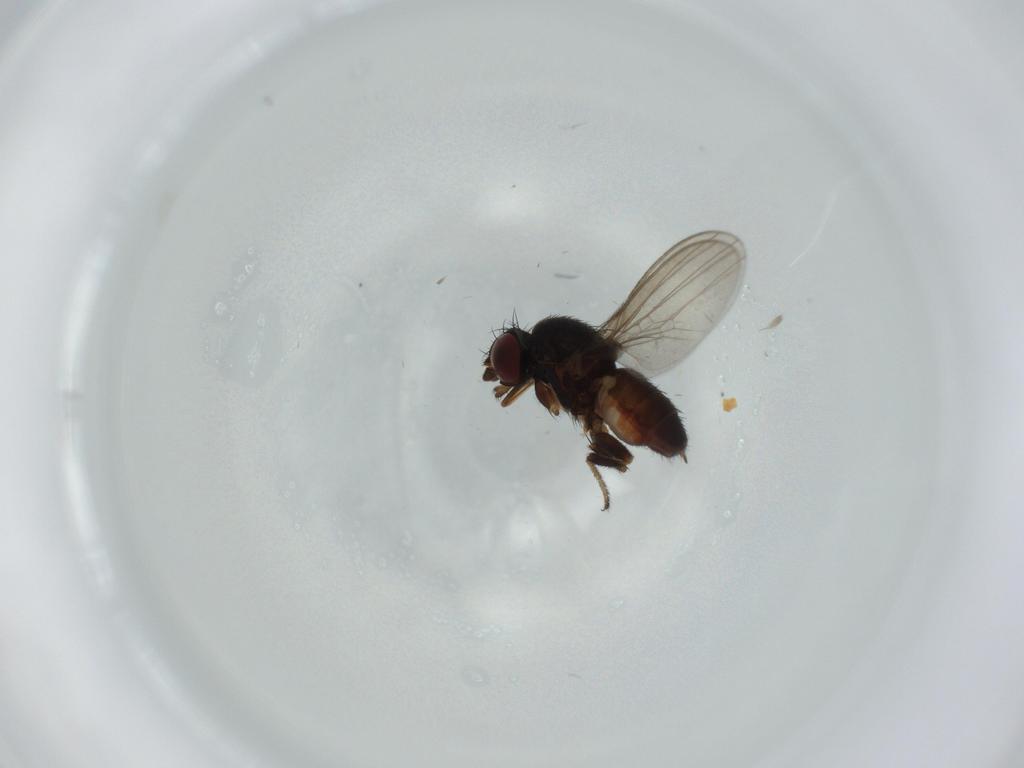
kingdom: Animalia
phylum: Arthropoda
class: Insecta
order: Diptera
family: Milichiidae
